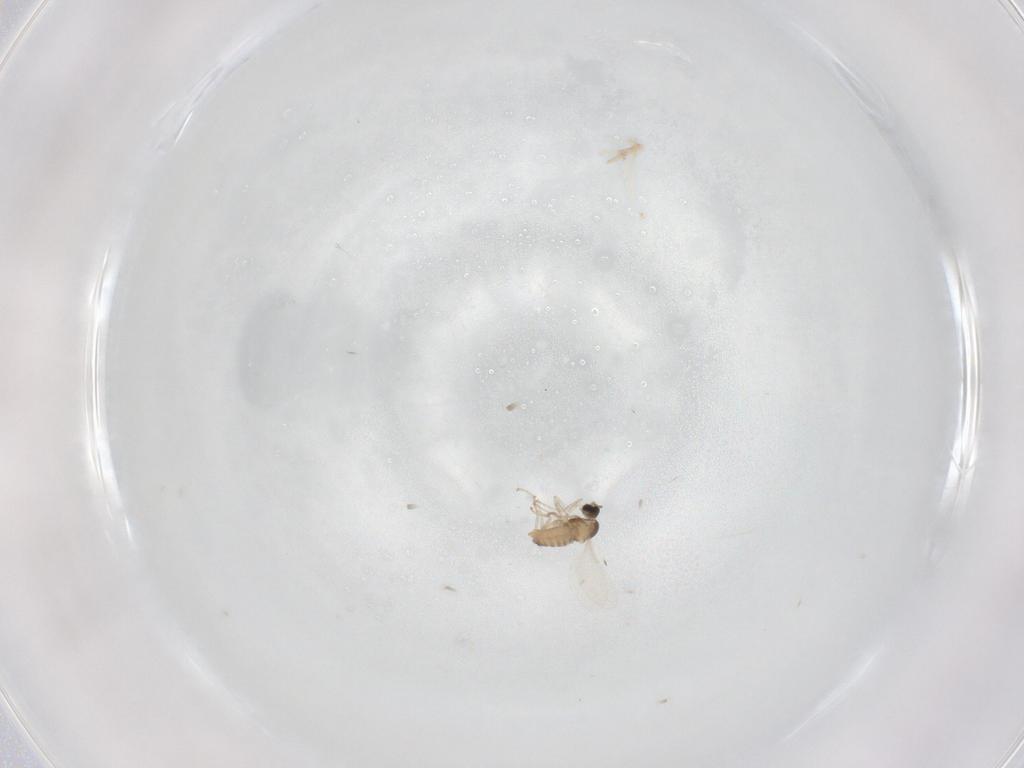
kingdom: Animalia
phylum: Arthropoda
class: Insecta
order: Diptera
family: Cecidomyiidae
